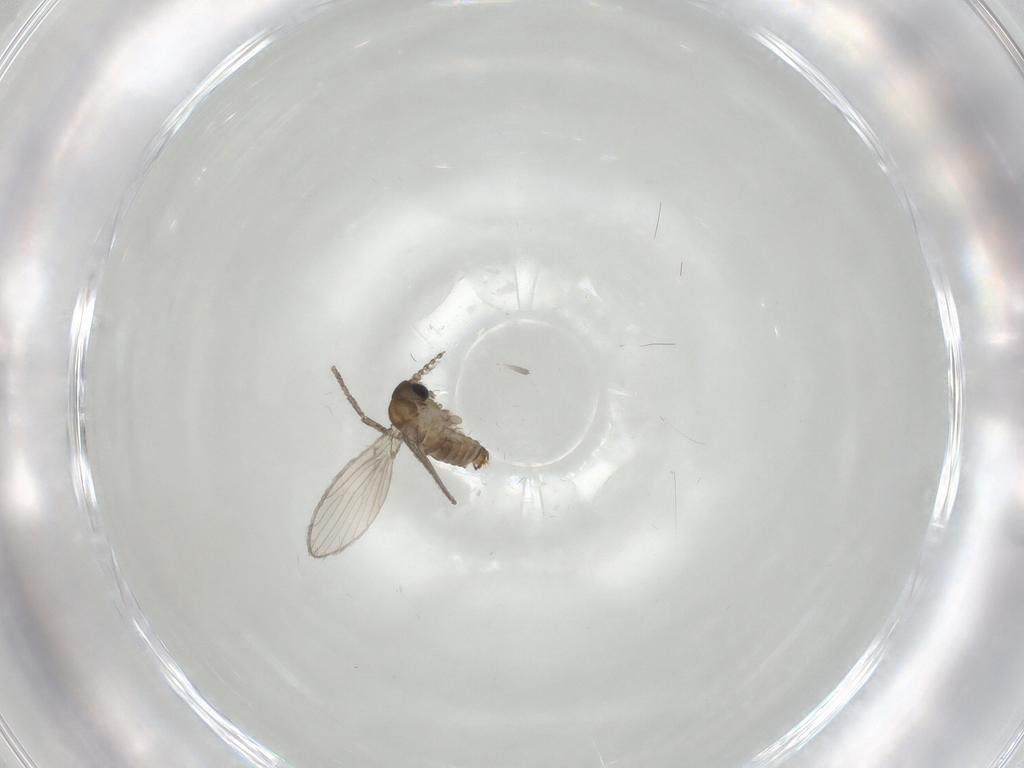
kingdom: Animalia
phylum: Arthropoda
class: Insecta
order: Diptera
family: Psychodidae
